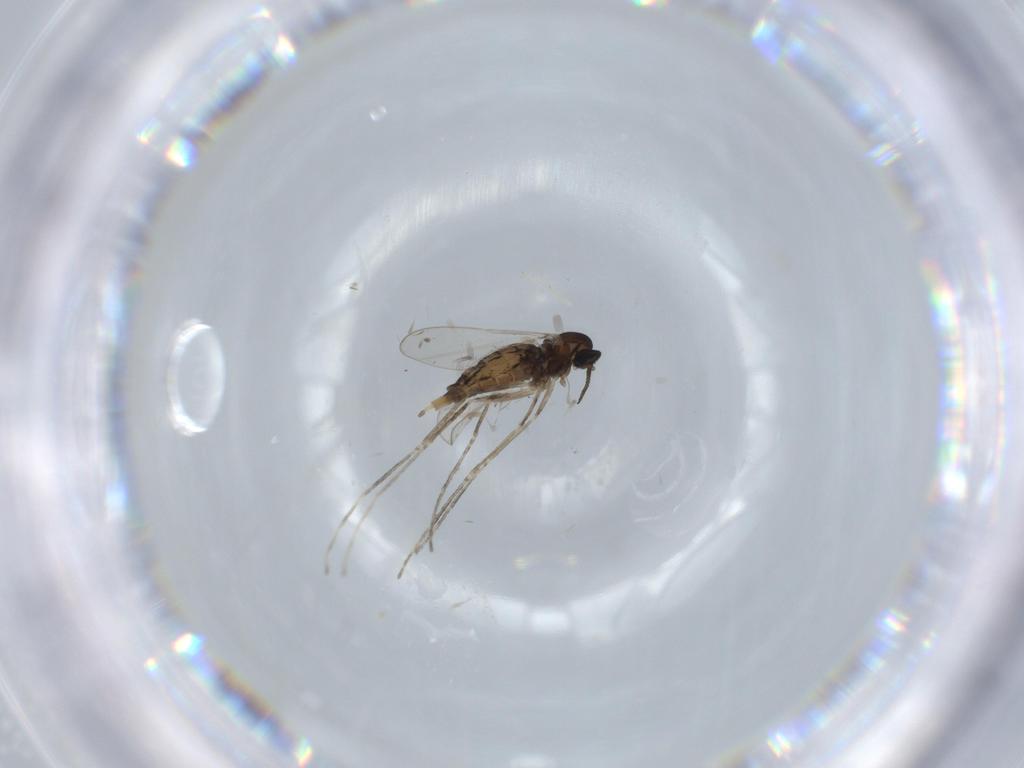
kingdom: Animalia
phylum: Arthropoda
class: Insecta
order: Diptera
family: Cecidomyiidae
